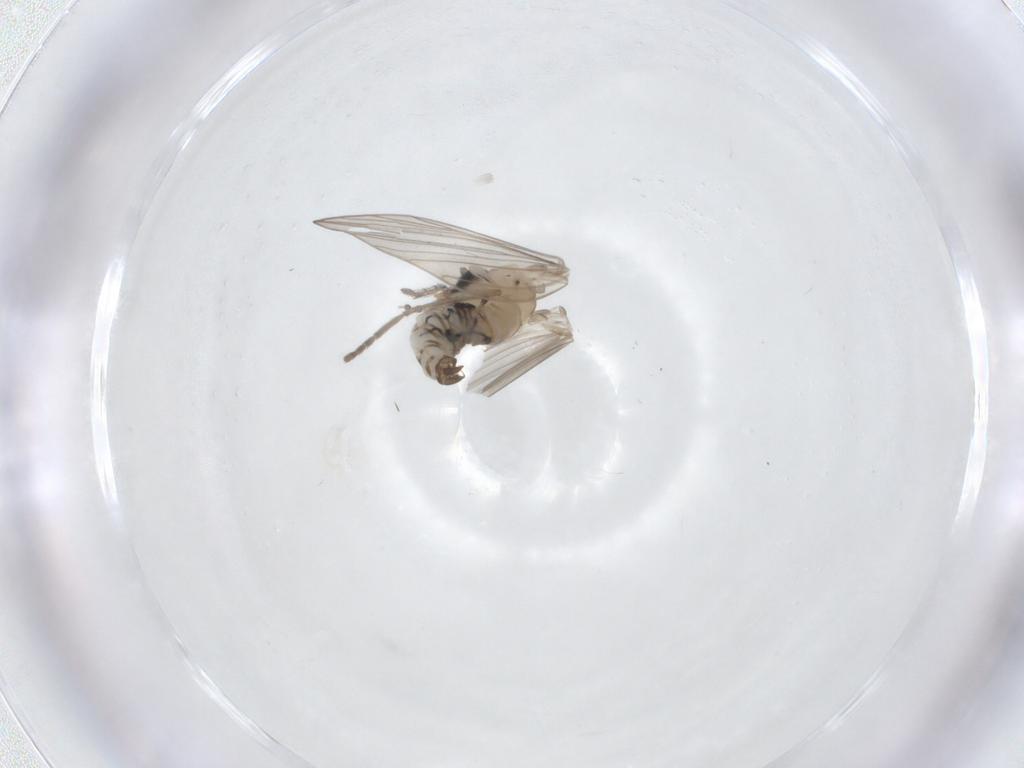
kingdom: Animalia
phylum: Arthropoda
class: Insecta
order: Diptera
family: Psychodidae
